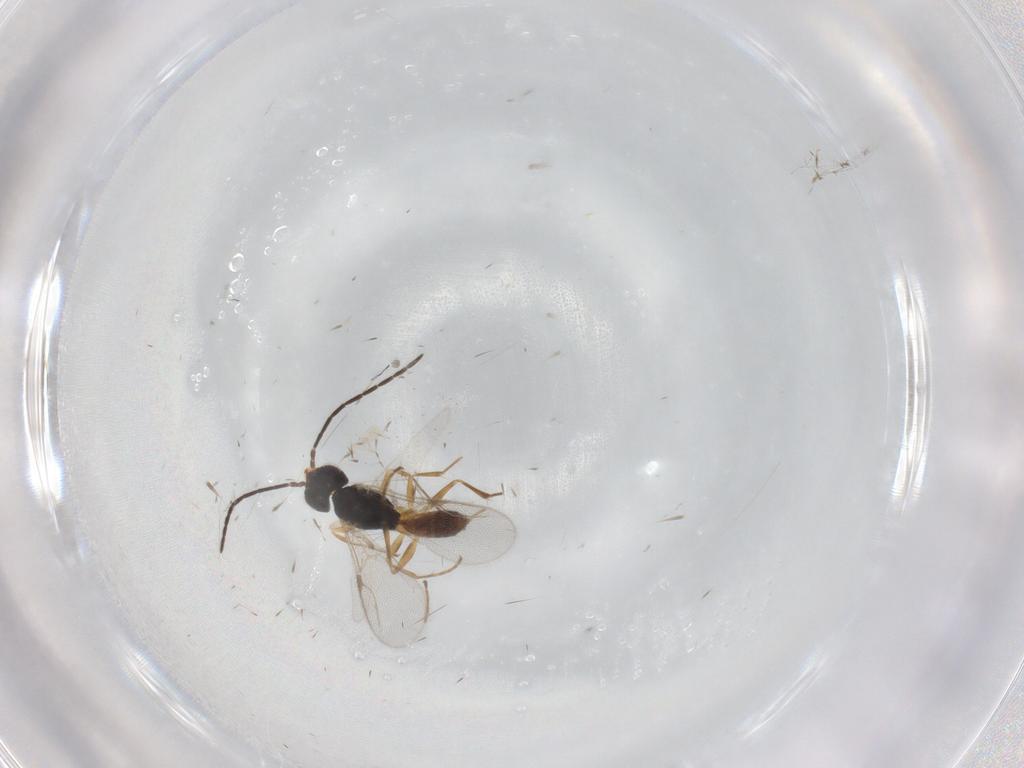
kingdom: Animalia
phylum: Arthropoda
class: Insecta
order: Hymenoptera
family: Dryinidae
